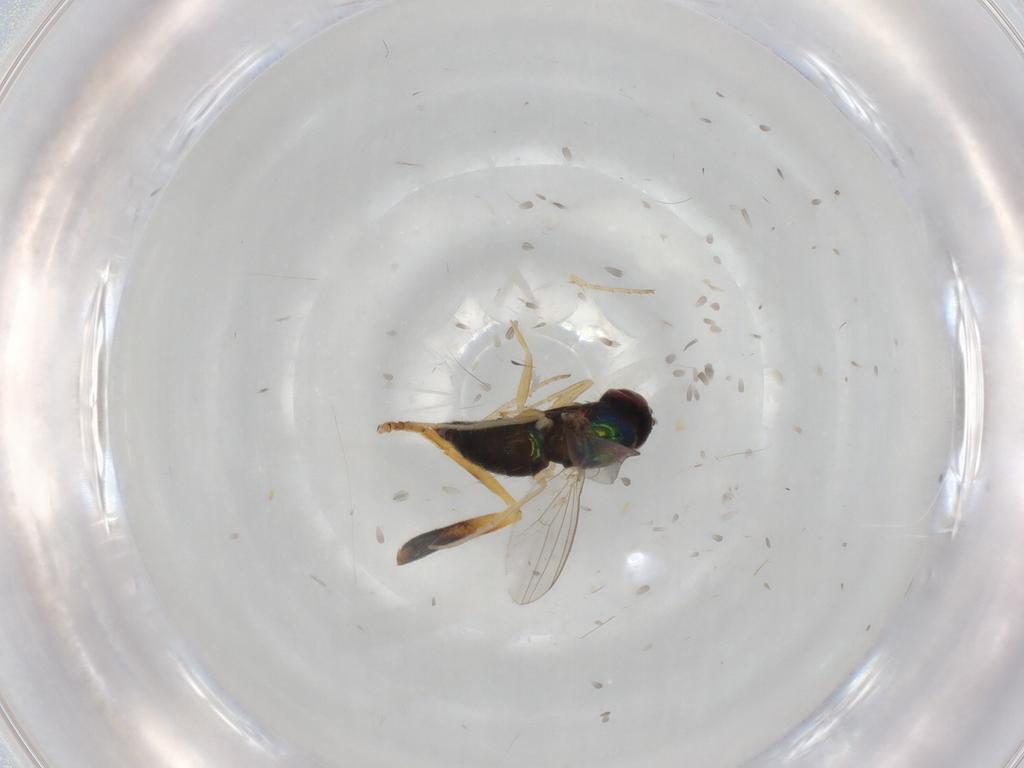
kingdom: Animalia
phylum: Arthropoda
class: Insecta
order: Diptera
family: Dolichopodidae
